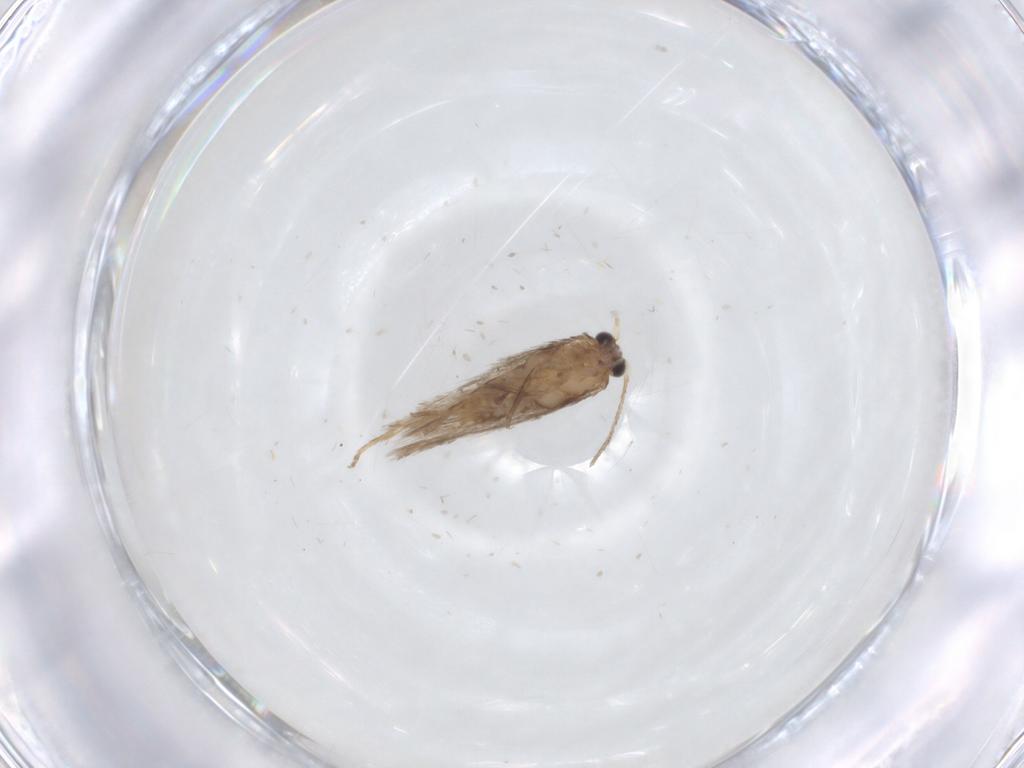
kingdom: Animalia
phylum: Arthropoda
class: Insecta
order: Lepidoptera
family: Nepticulidae
